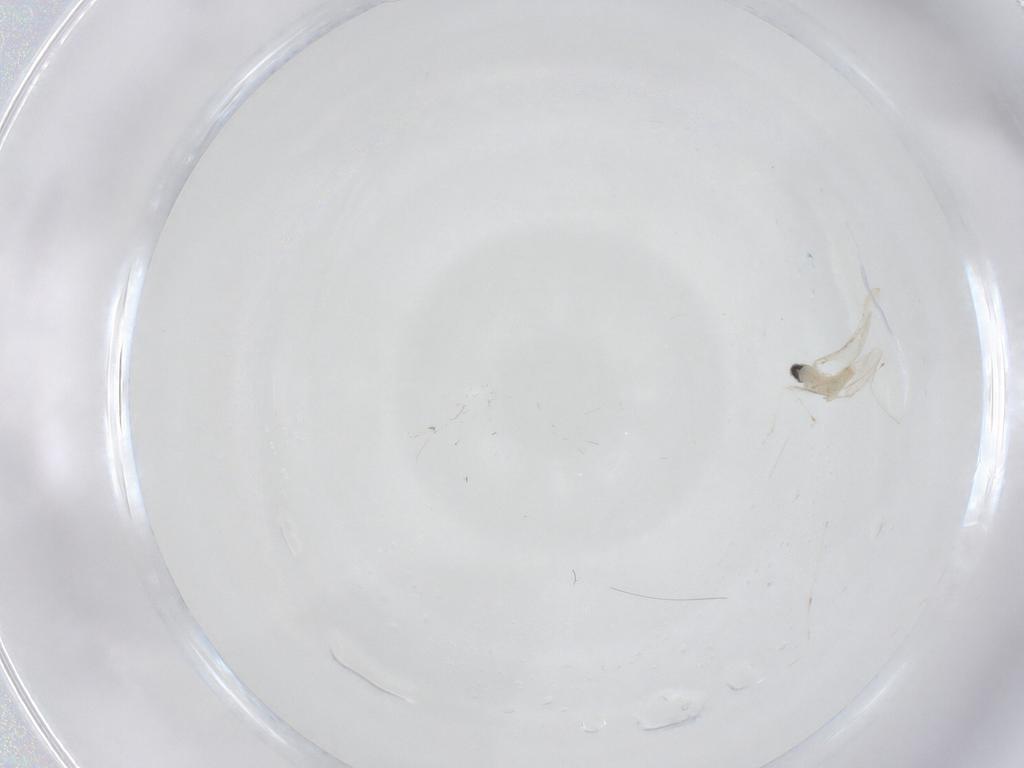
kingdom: Animalia
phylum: Arthropoda
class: Insecta
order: Diptera
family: Cecidomyiidae
